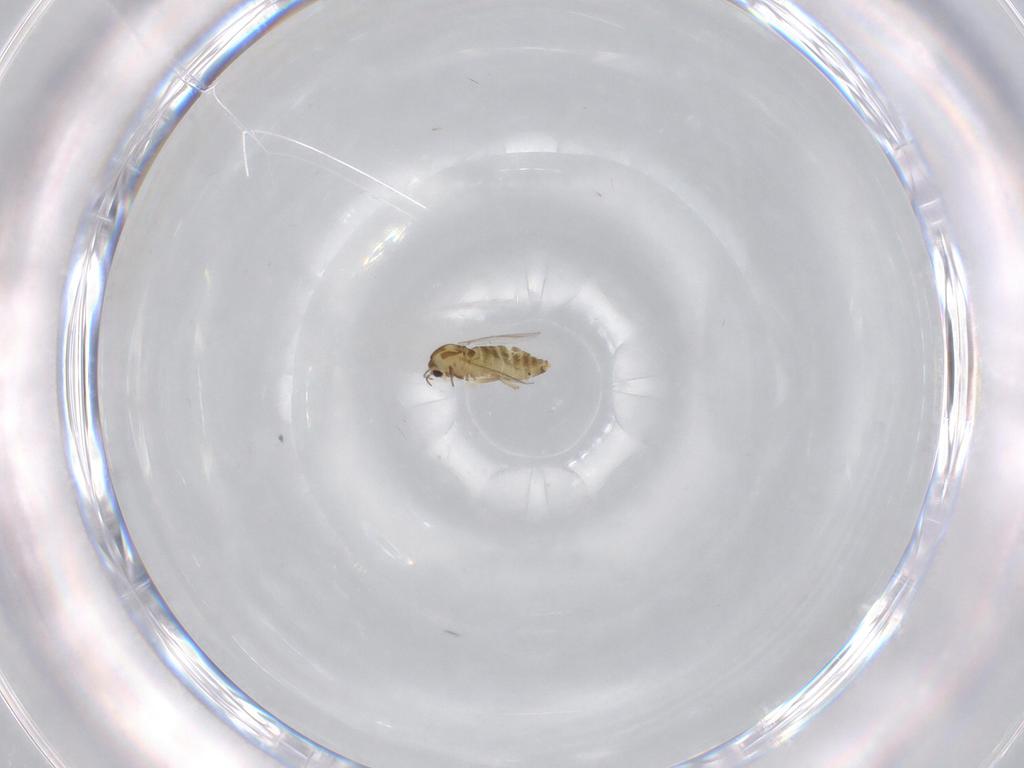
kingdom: Animalia
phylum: Arthropoda
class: Insecta
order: Diptera
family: Chironomidae
